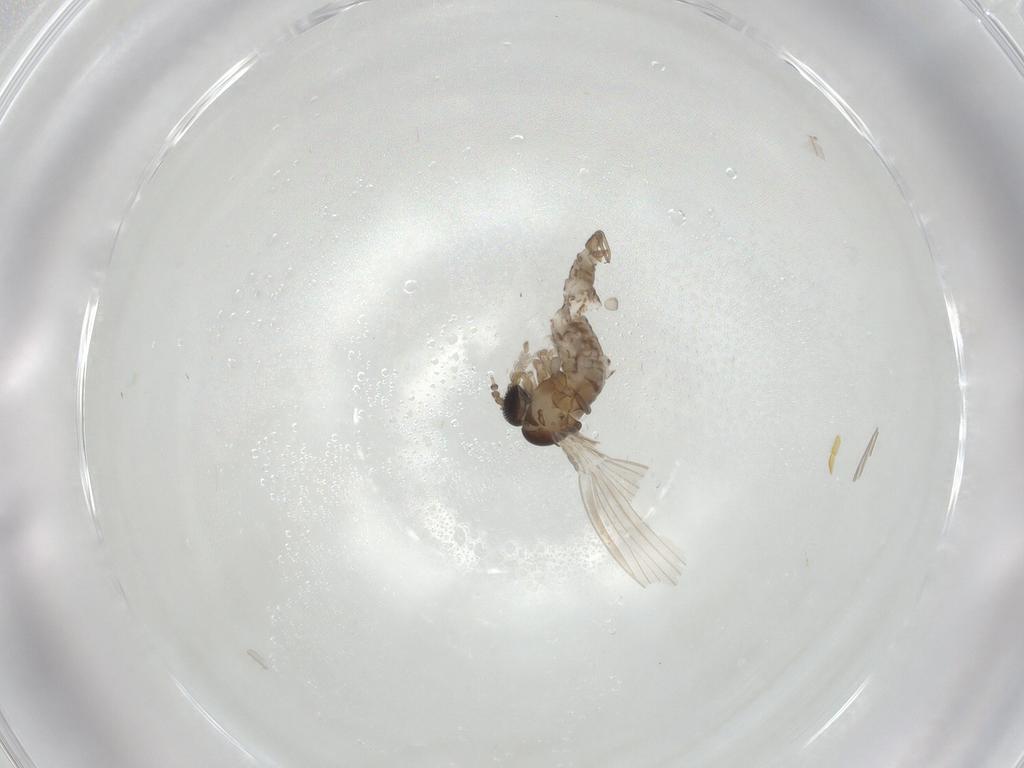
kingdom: Animalia
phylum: Arthropoda
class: Insecta
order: Diptera
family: Psychodidae
